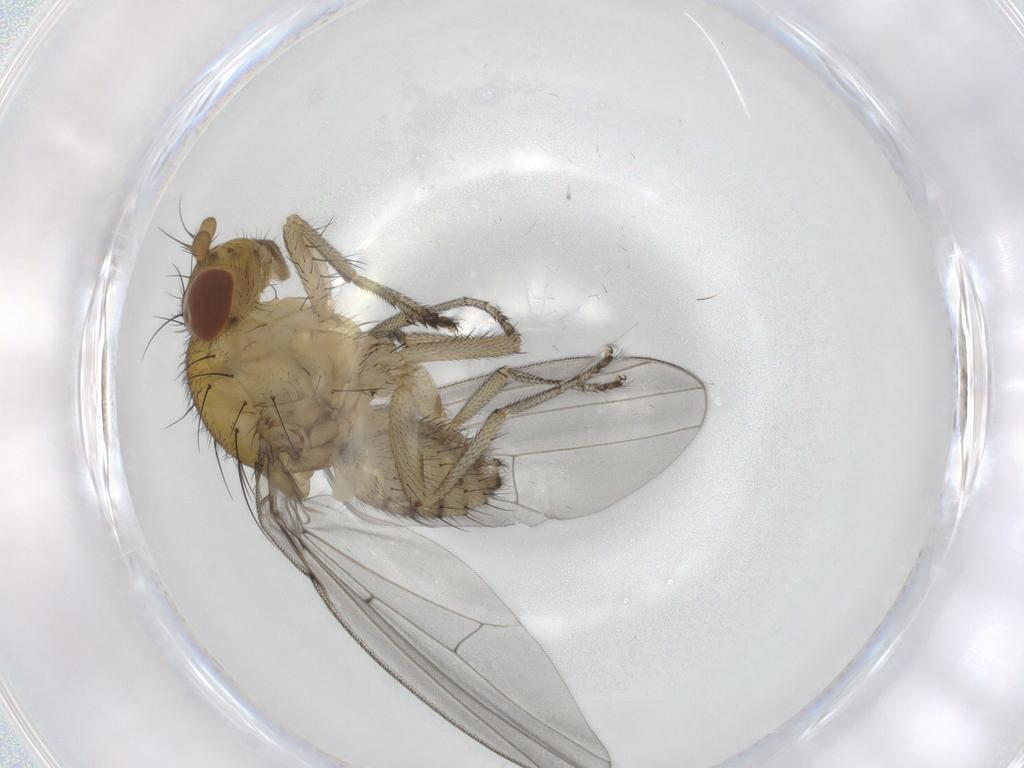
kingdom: Animalia
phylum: Arthropoda
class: Insecta
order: Diptera
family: Lauxaniidae
